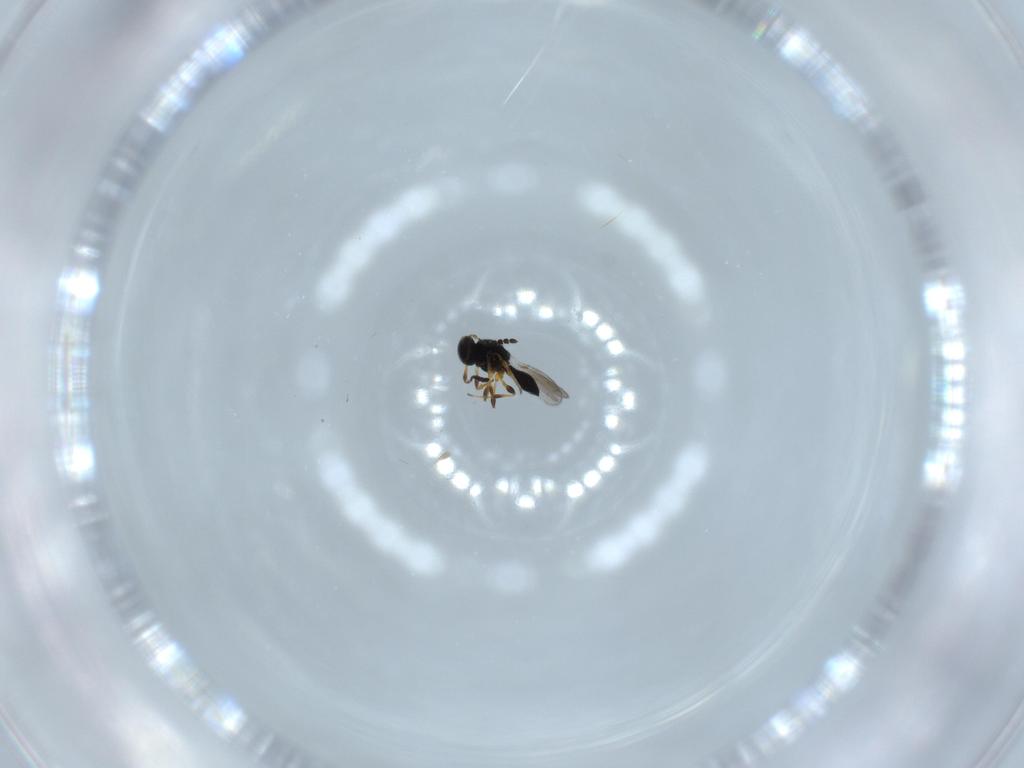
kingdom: Animalia
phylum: Arthropoda
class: Insecta
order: Hymenoptera
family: Platygastridae
